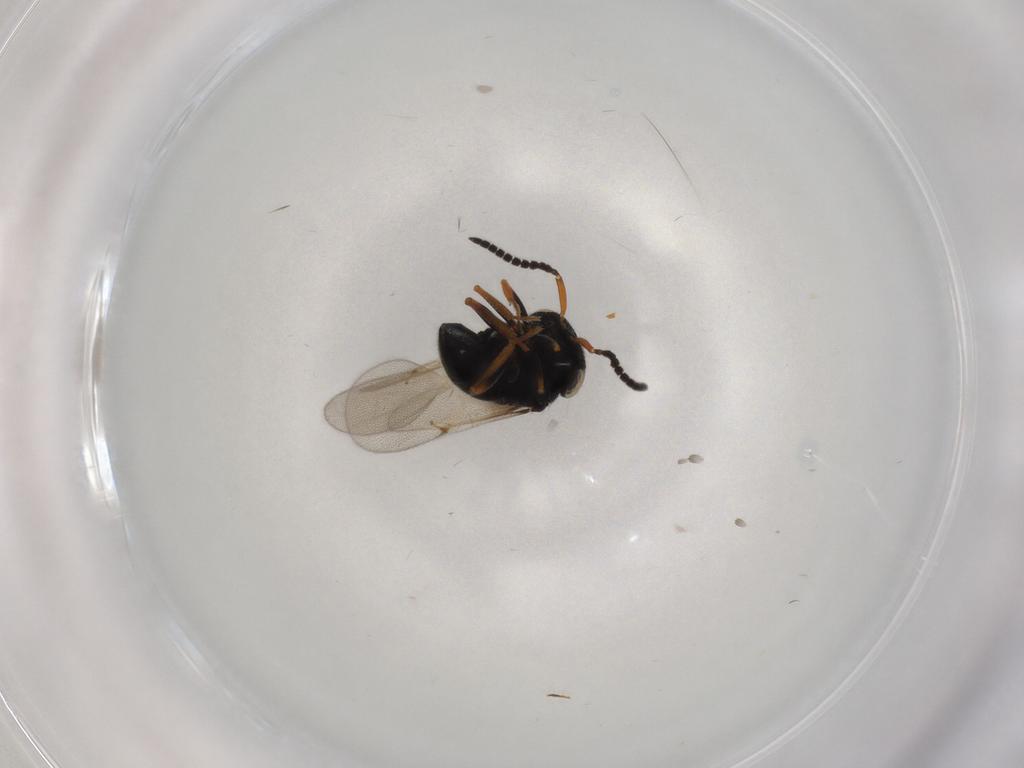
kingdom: Animalia
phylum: Arthropoda
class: Insecta
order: Hymenoptera
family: Scelionidae
